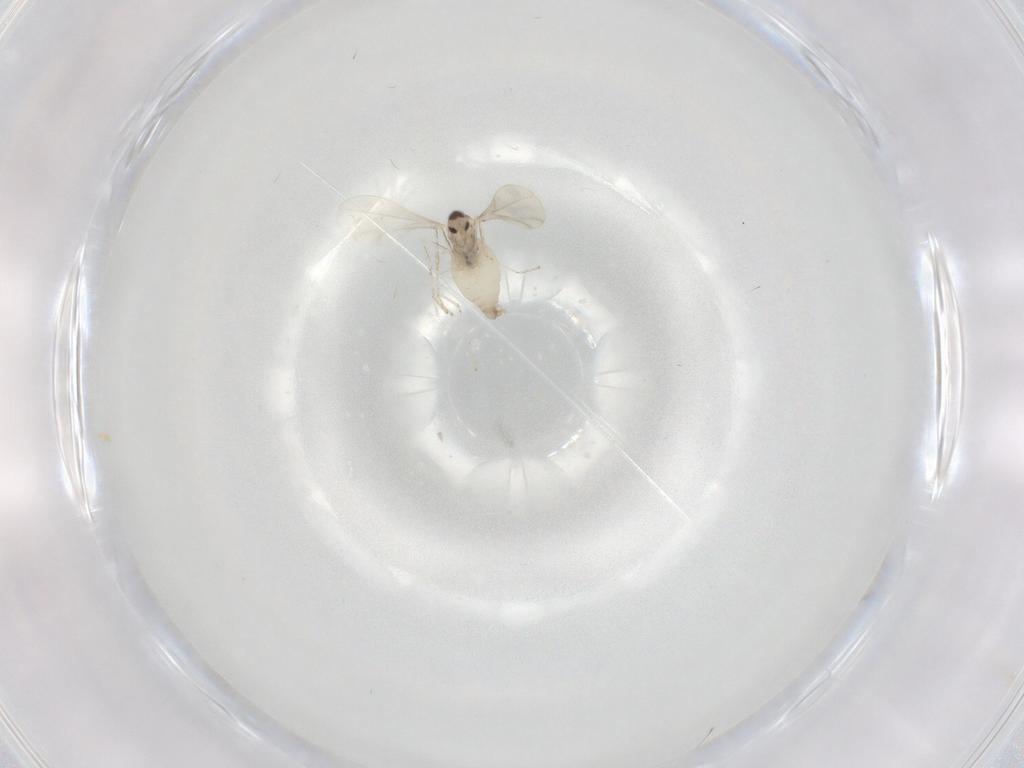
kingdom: Animalia
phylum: Arthropoda
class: Insecta
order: Diptera
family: Cecidomyiidae
